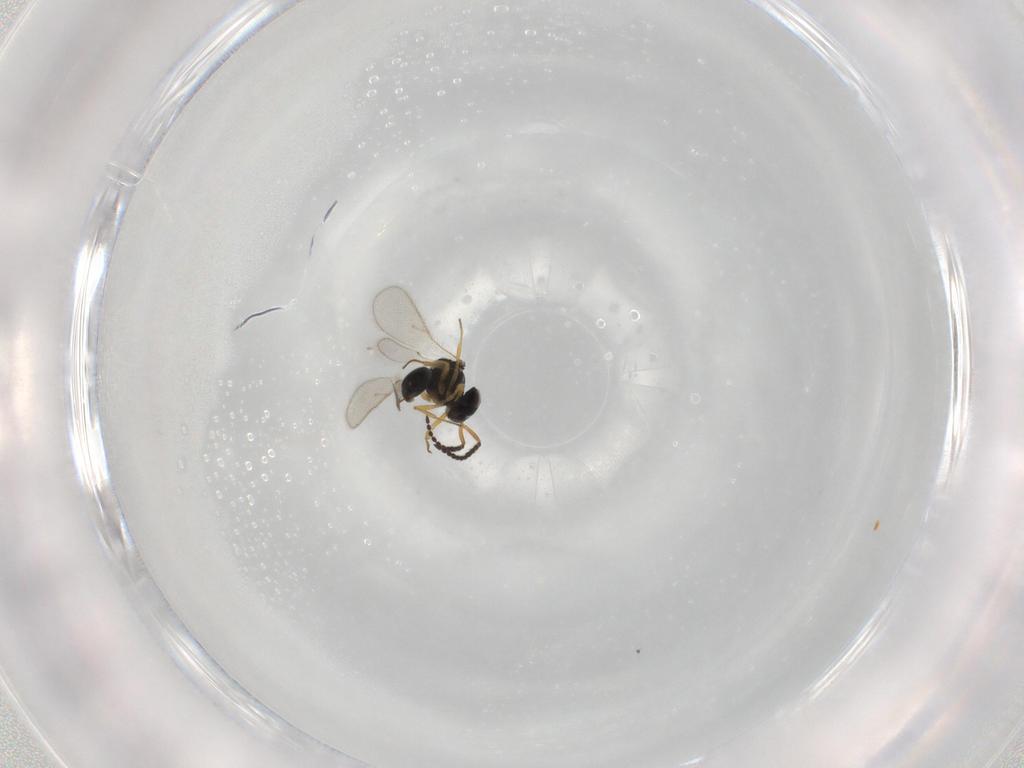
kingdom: Animalia
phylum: Arthropoda
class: Insecta
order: Hymenoptera
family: Scelionidae
